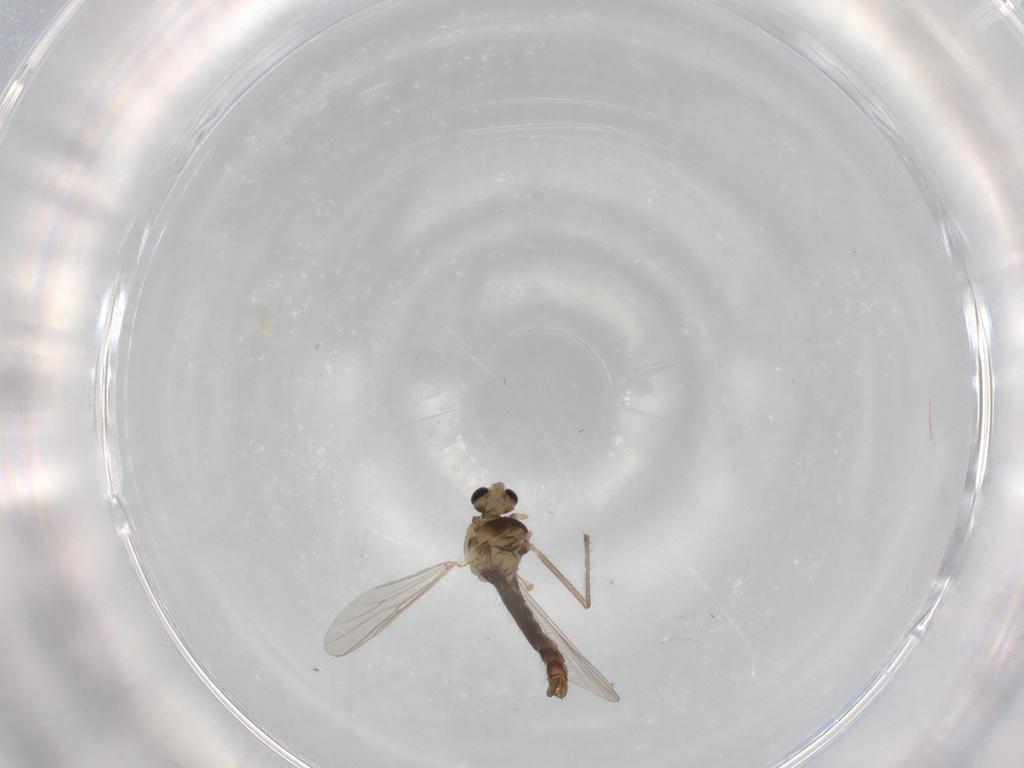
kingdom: Animalia
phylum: Arthropoda
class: Insecta
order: Diptera
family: Chironomidae
